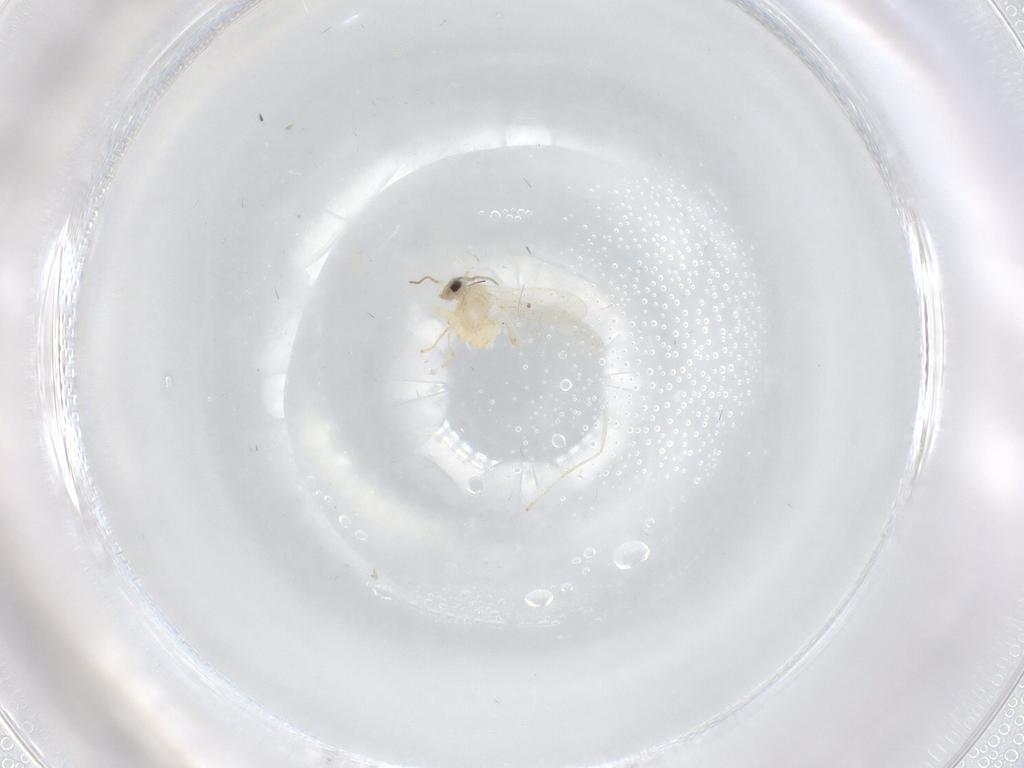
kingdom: Animalia
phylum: Arthropoda
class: Insecta
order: Diptera
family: Cecidomyiidae
